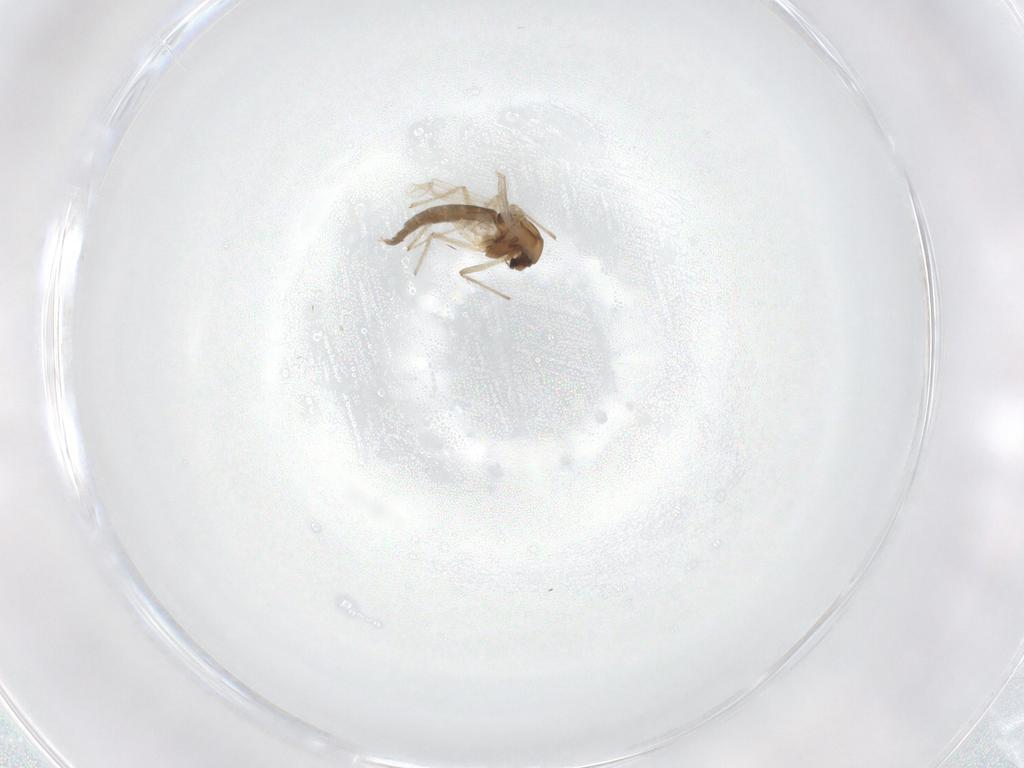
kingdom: Animalia
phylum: Arthropoda
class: Insecta
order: Diptera
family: Chironomidae
